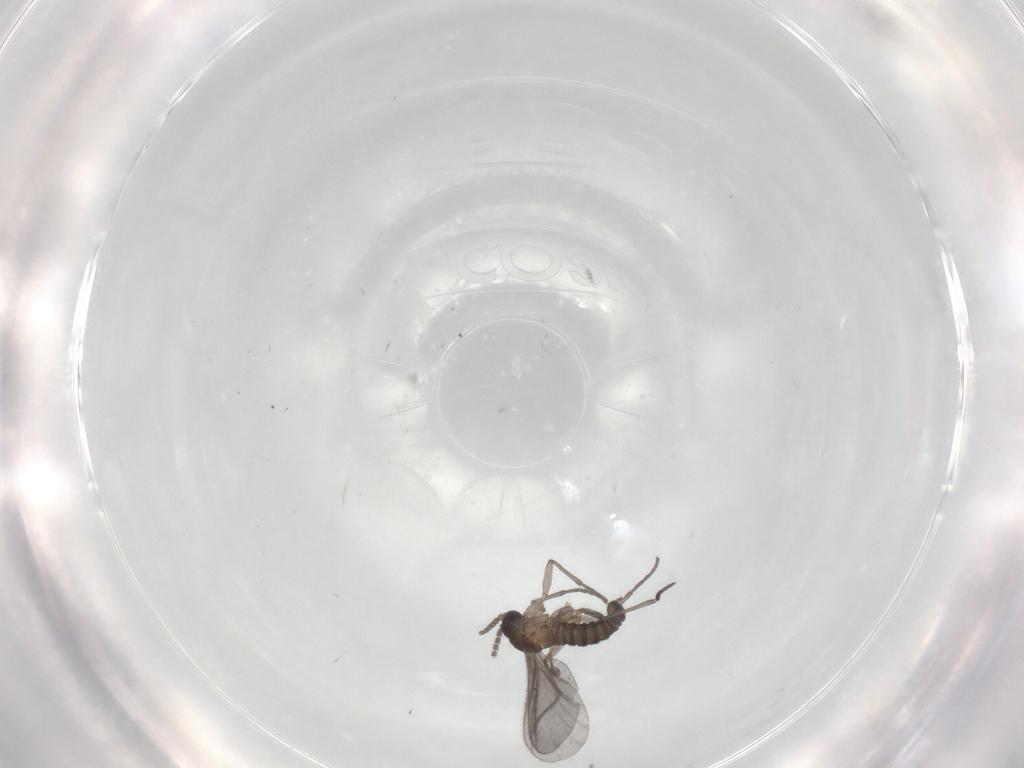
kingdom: Animalia
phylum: Arthropoda
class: Insecta
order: Diptera
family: Sciaridae
